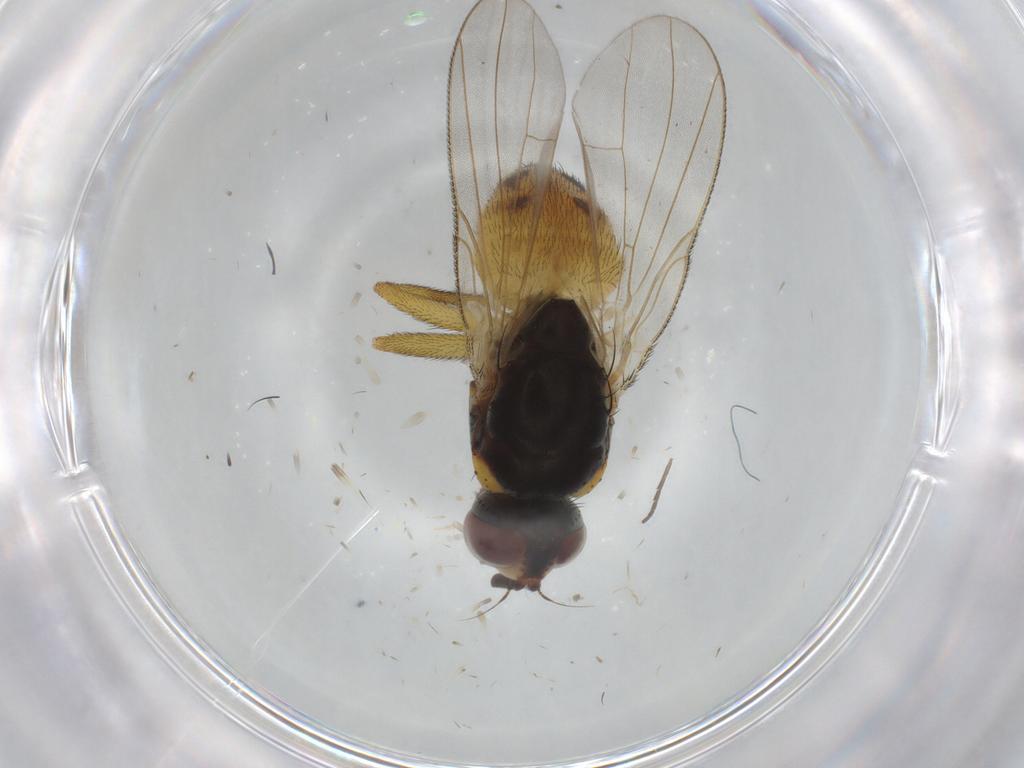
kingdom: Animalia
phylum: Arthropoda
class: Insecta
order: Diptera
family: Muscidae
